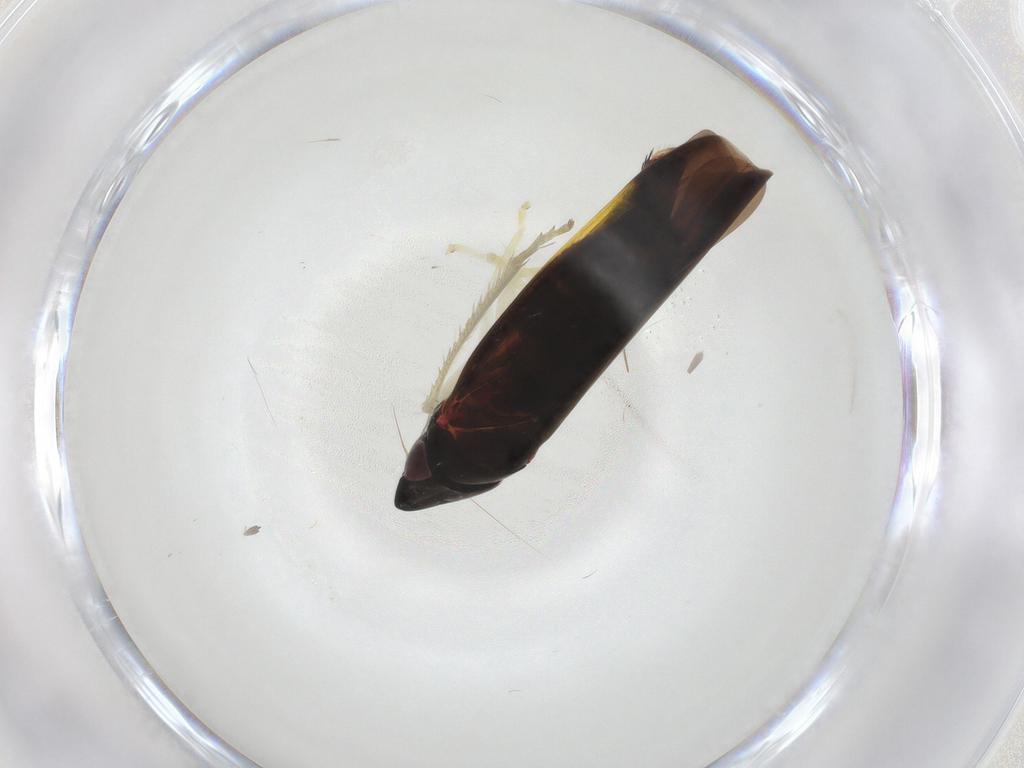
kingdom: Animalia
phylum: Arthropoda
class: Insecta
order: Hemiptera
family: Cicadellidae
